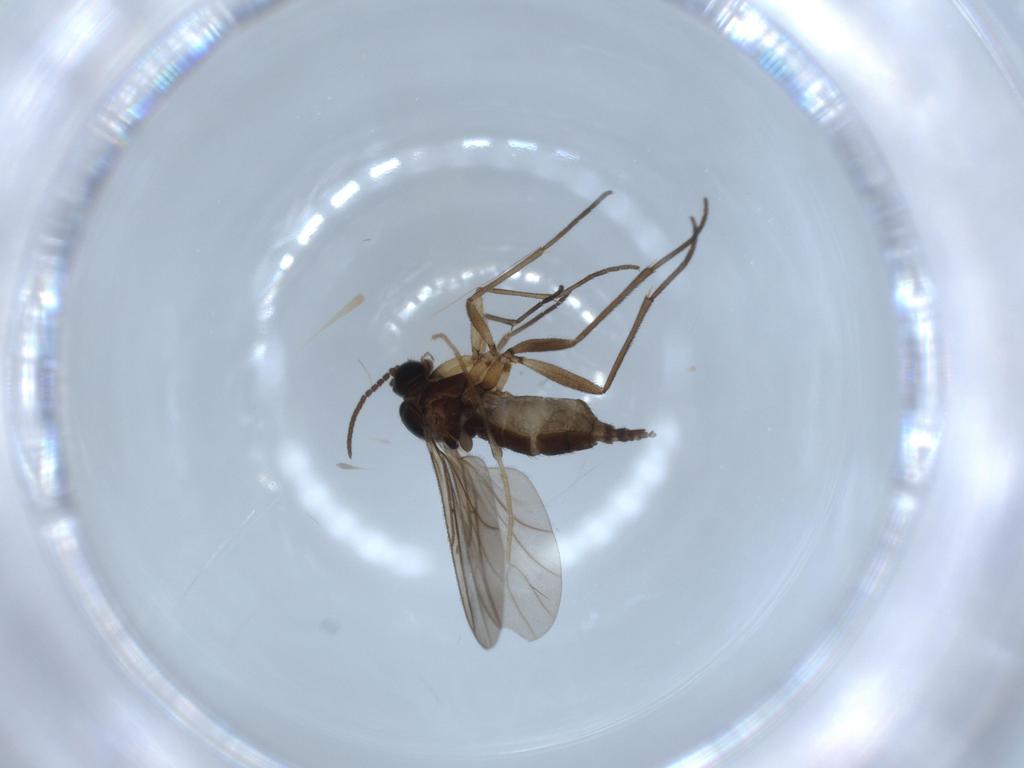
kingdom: Animalia
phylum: Arthropoda
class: Insecta
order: Diptera
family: Sciaridae
